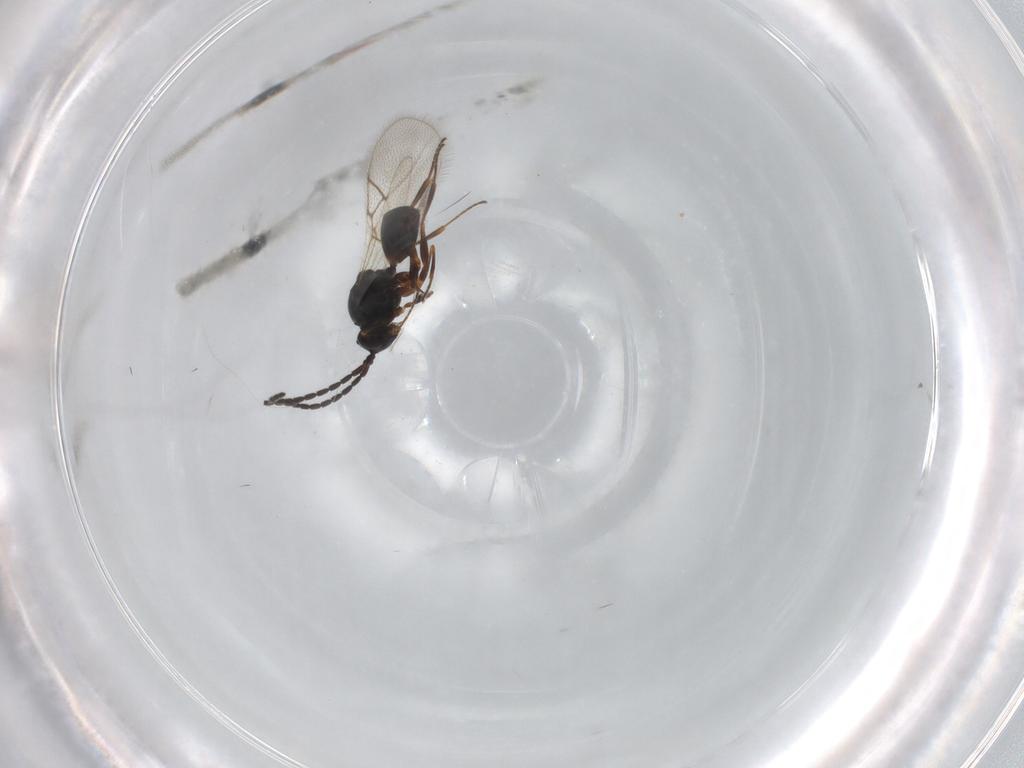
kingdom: Animalia
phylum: Arthropoda
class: Insecta
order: Hymenoptera
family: Figitidae
